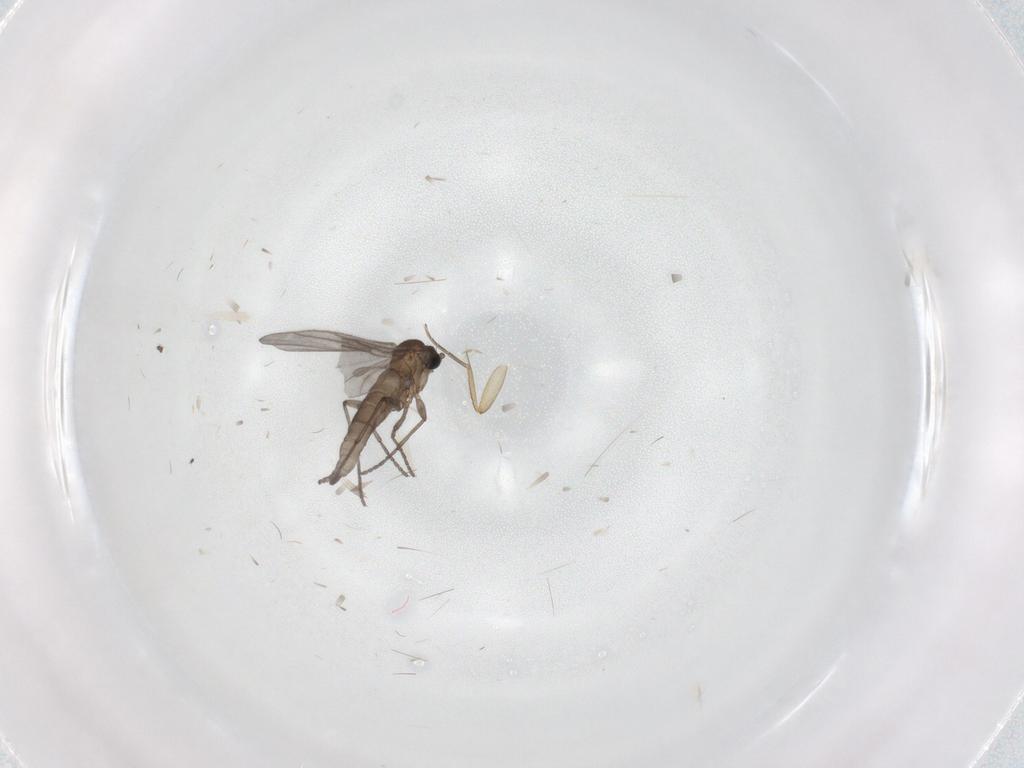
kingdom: Animalia
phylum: Arthropoda
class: Insecta
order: Diptera
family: Sciaridae
